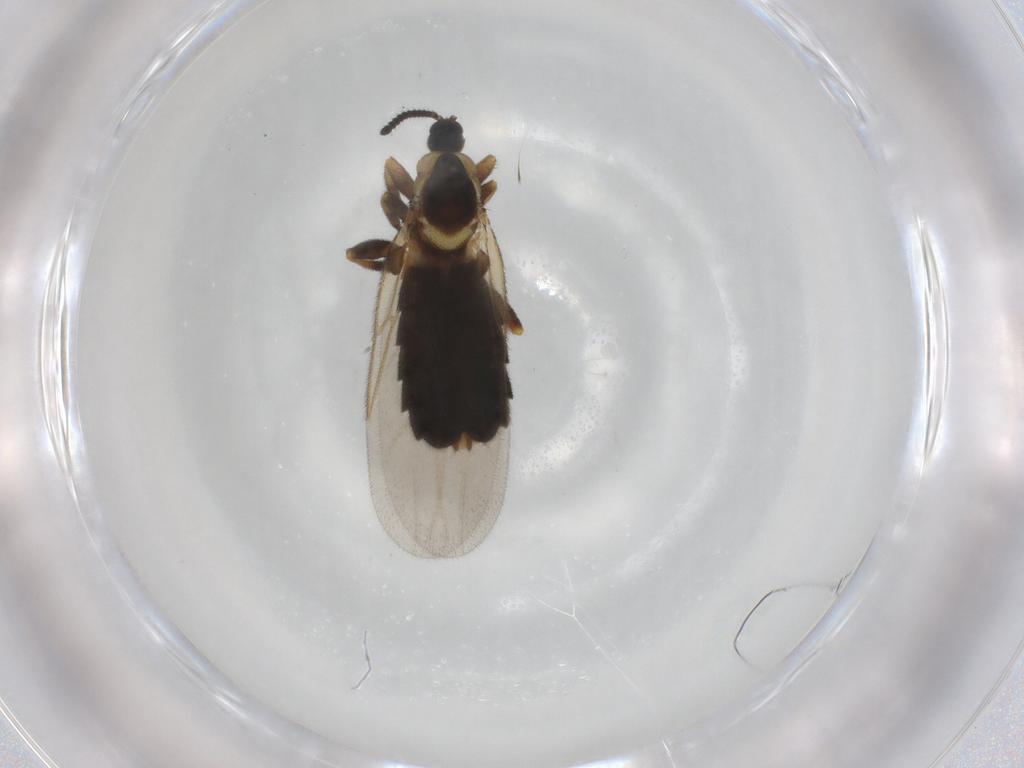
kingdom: Animalia
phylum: Arthropoda
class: Insecta
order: Diptera
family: Scatopsidae
